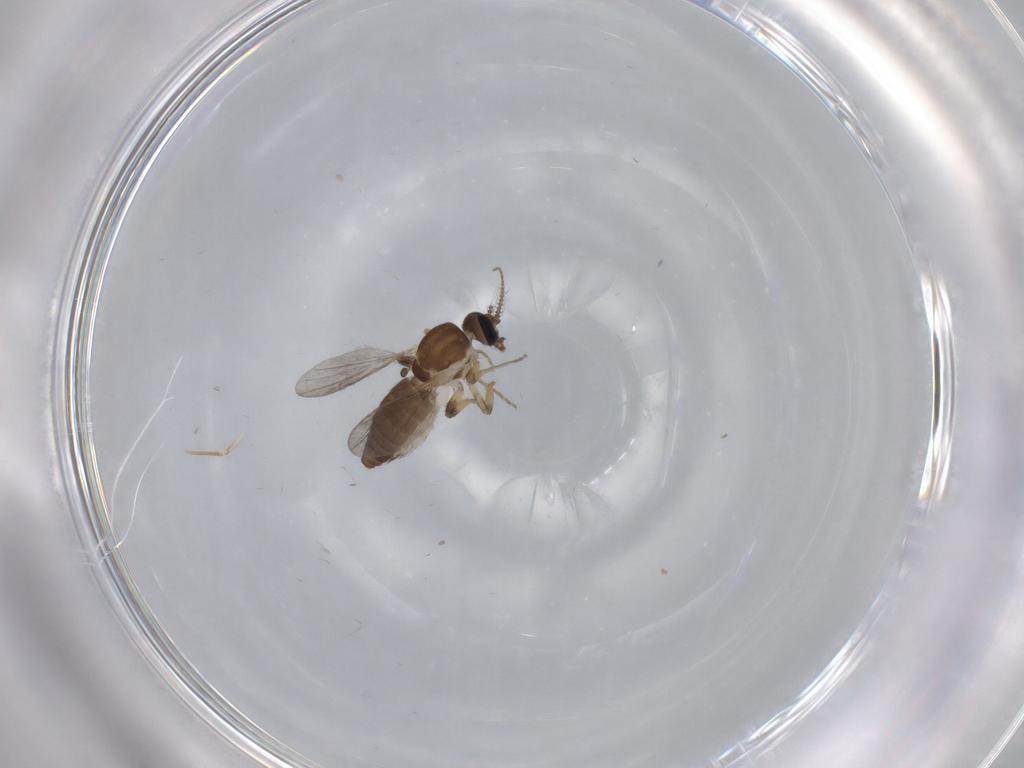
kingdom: Animalia
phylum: Arthropoda
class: Insecta
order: Diptera
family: Ceratopogonidae
